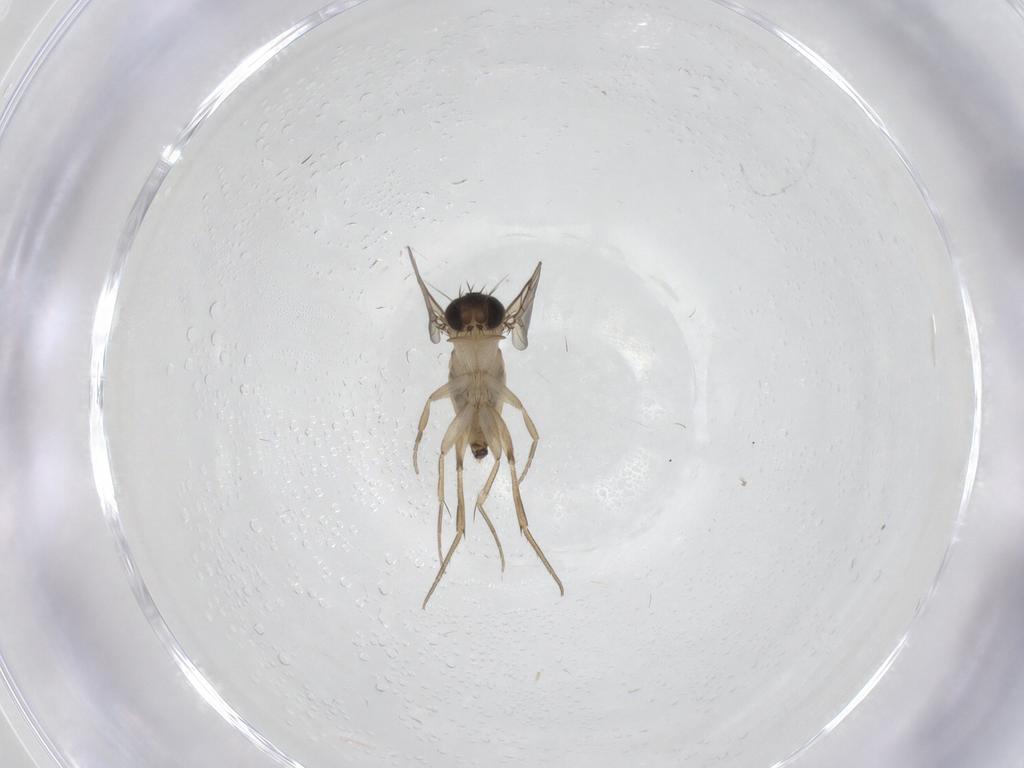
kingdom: Animalia
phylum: Arthropoda
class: Insecta
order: Diptera
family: Phoridae
